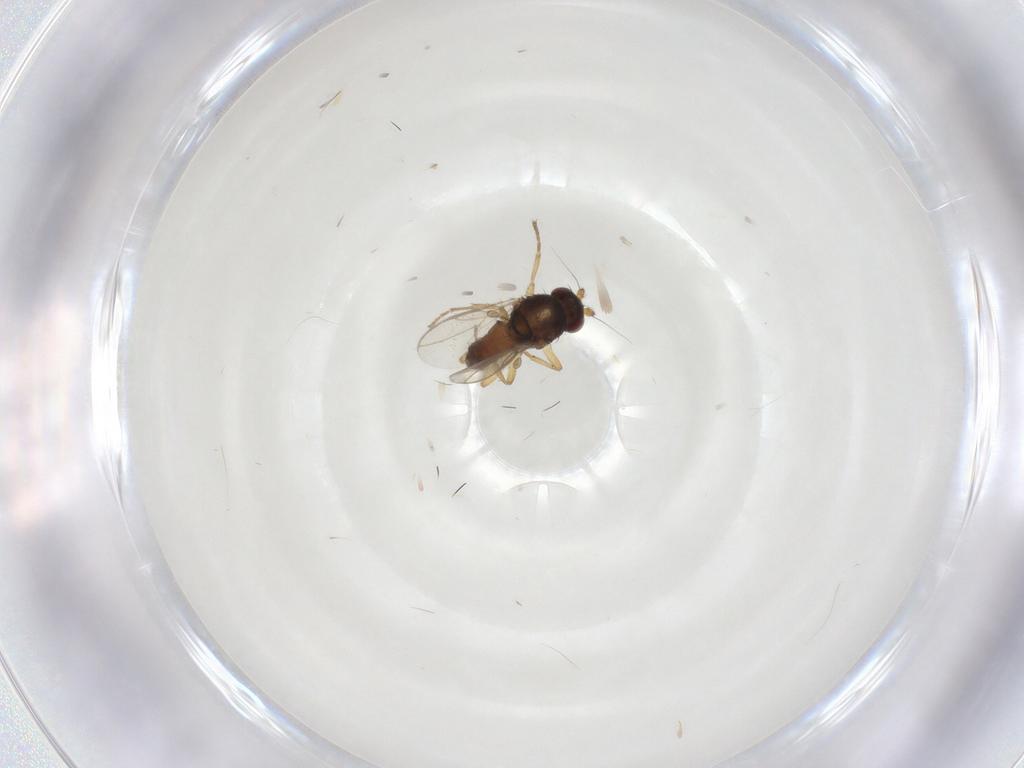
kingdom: Animalia
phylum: Arthropoda
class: Insecta
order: Diptera
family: Sphaeroceridae
